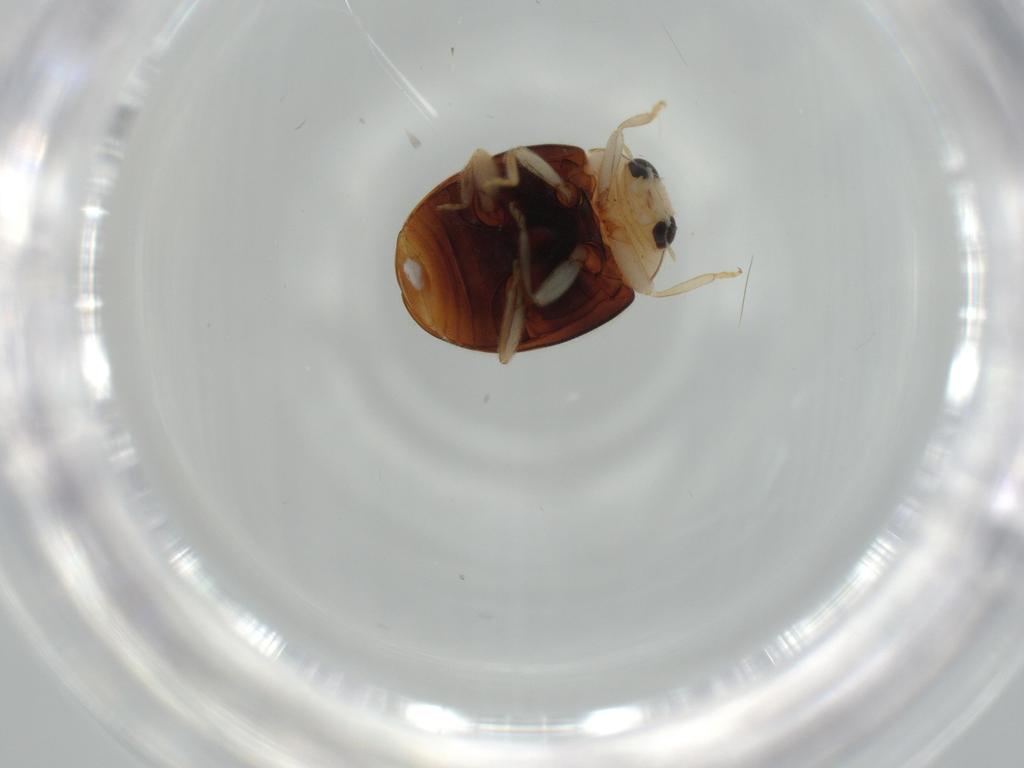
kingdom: Animalia
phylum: Arthropoda
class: Insecta
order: Coleoptera
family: Coccinellidae
